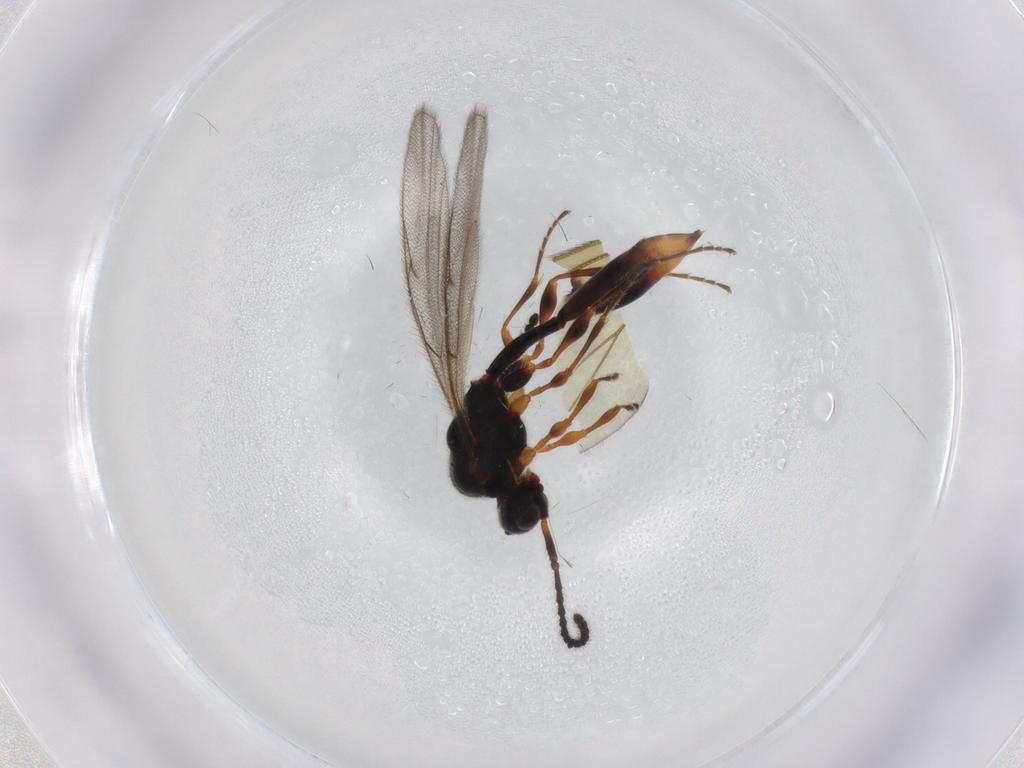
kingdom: Animalia
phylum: Arthropoda
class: Insecta
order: Hymenoptera
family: Diapriidae
